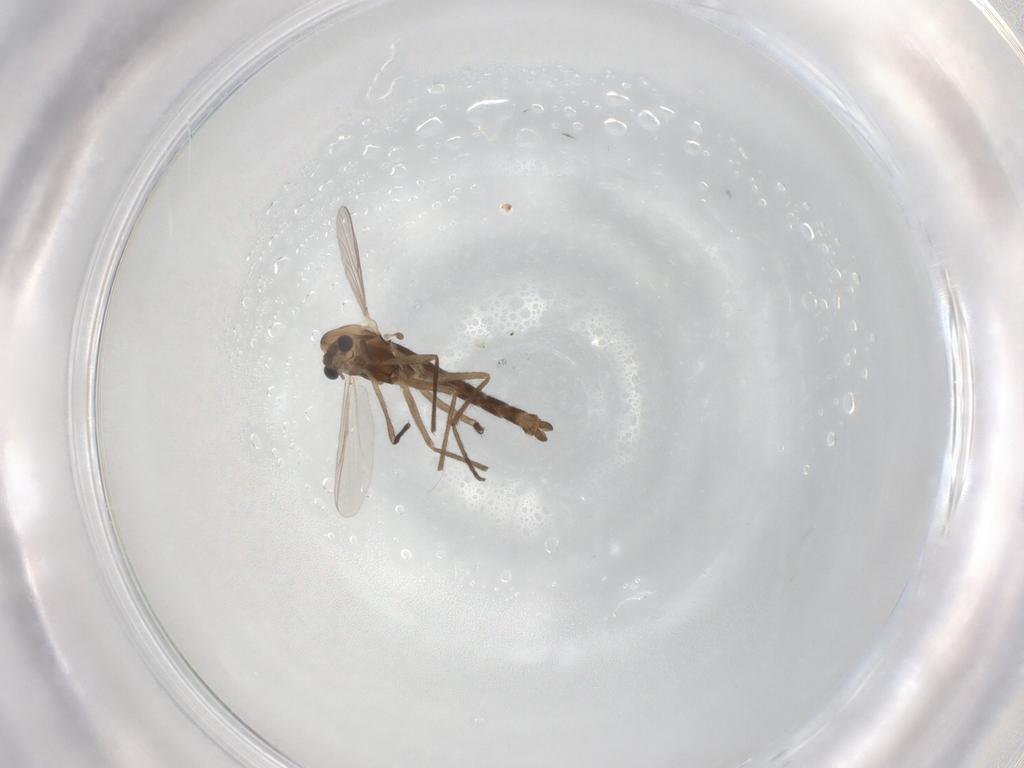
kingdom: Animalia
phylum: Arthropoda
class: Insecta
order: Diptera
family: Chironomidae
